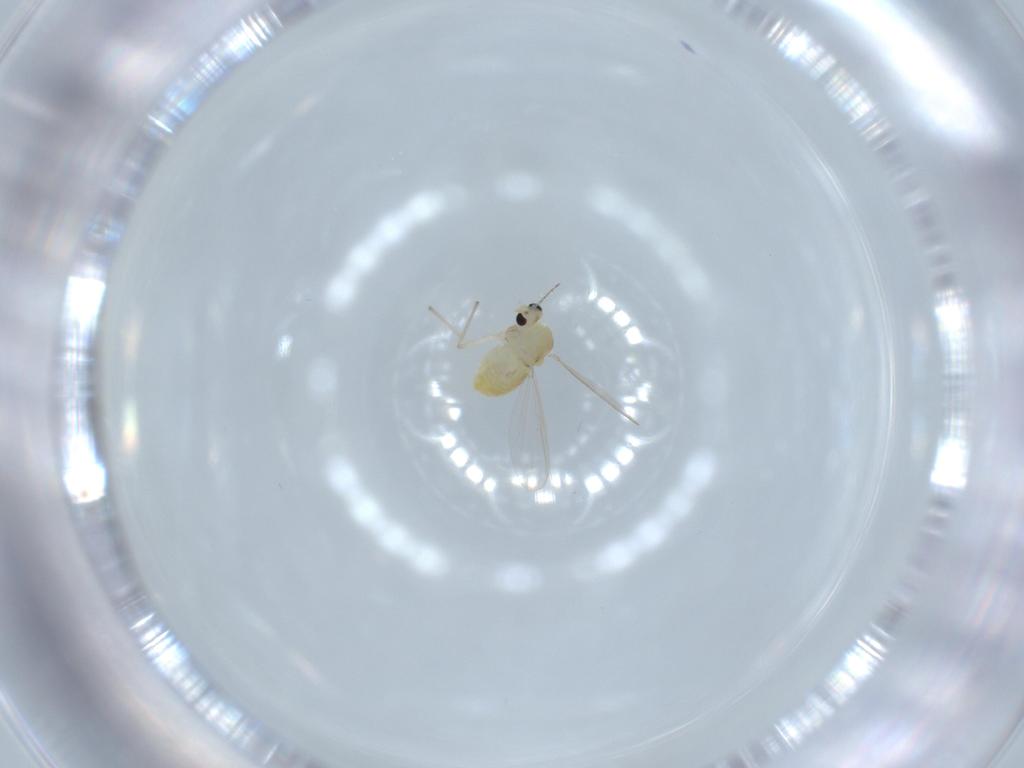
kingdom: Animalia
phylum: Arthropoda
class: Insecta
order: Diptera
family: Chironomidae
